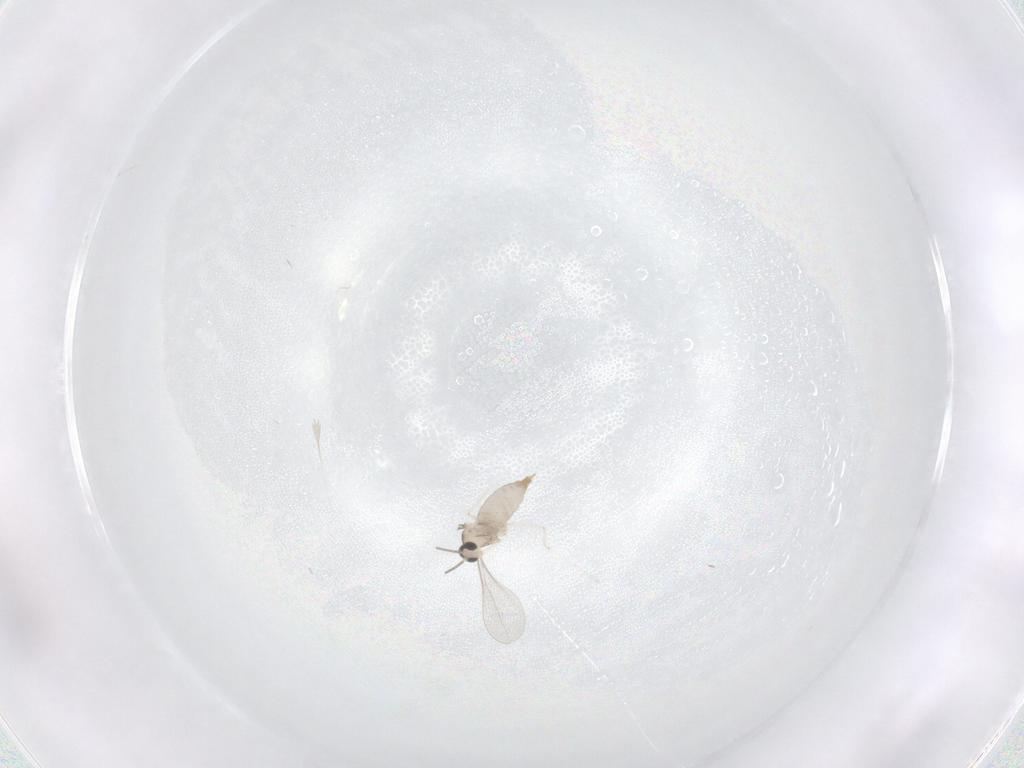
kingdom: Animalia
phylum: Arthropoda
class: Insecta
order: Diptera
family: Cecidomyiidae
